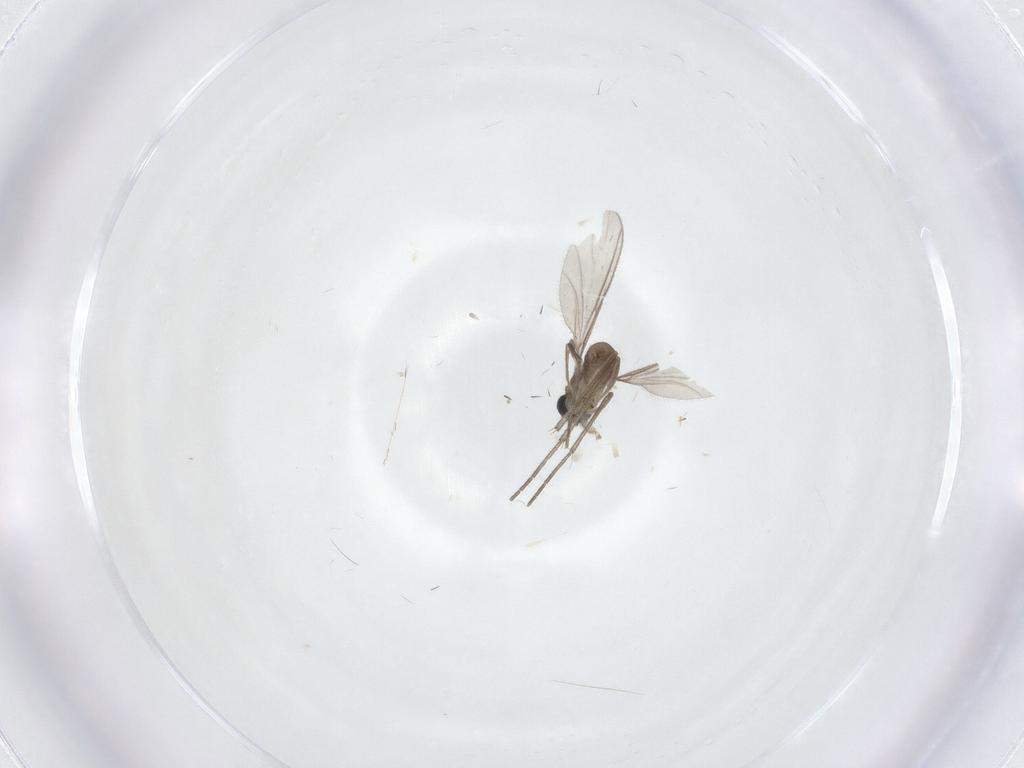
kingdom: Animalia
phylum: Arthropoda
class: Insecta
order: Diptera
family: Sciaridae
